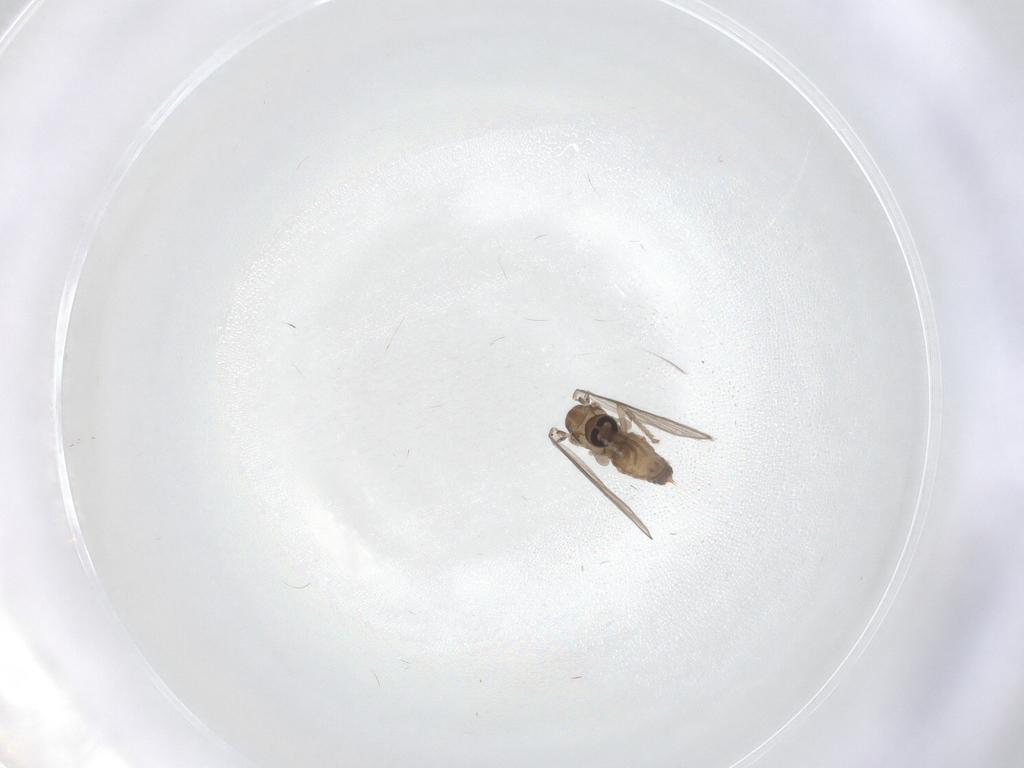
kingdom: Animalia
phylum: Arthropoda
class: Insecta
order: Diptera
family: Psychodidae
